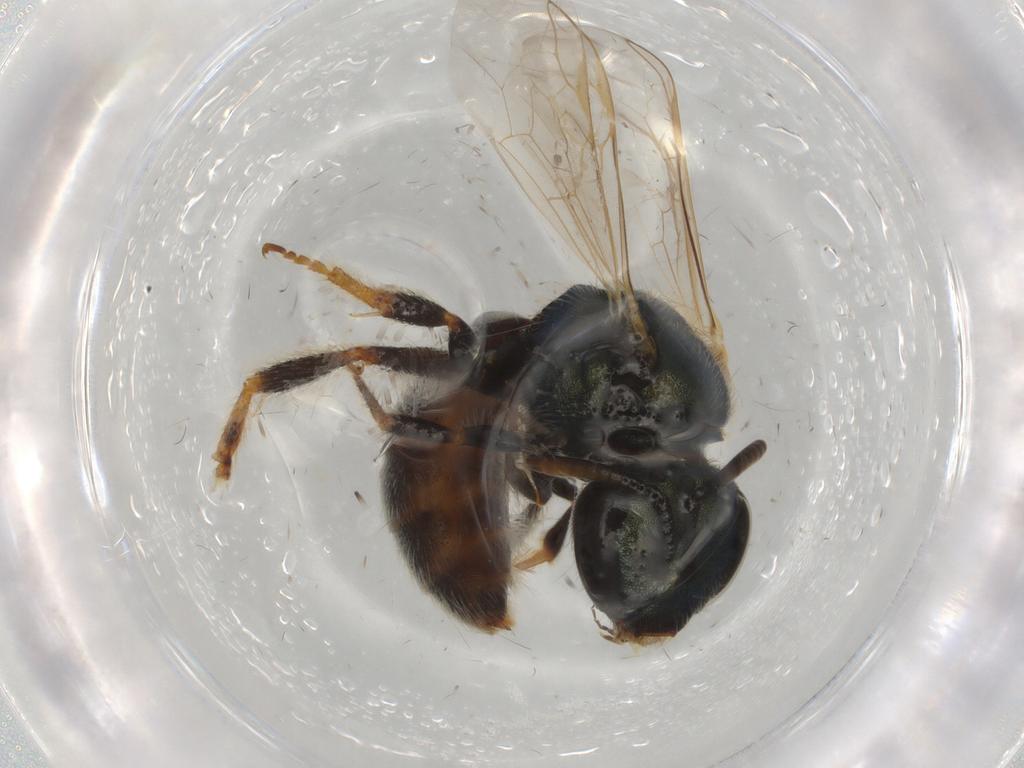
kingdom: Animalia
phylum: Arthropoda
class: Insecta
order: Hymenoptera
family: Halictidae
